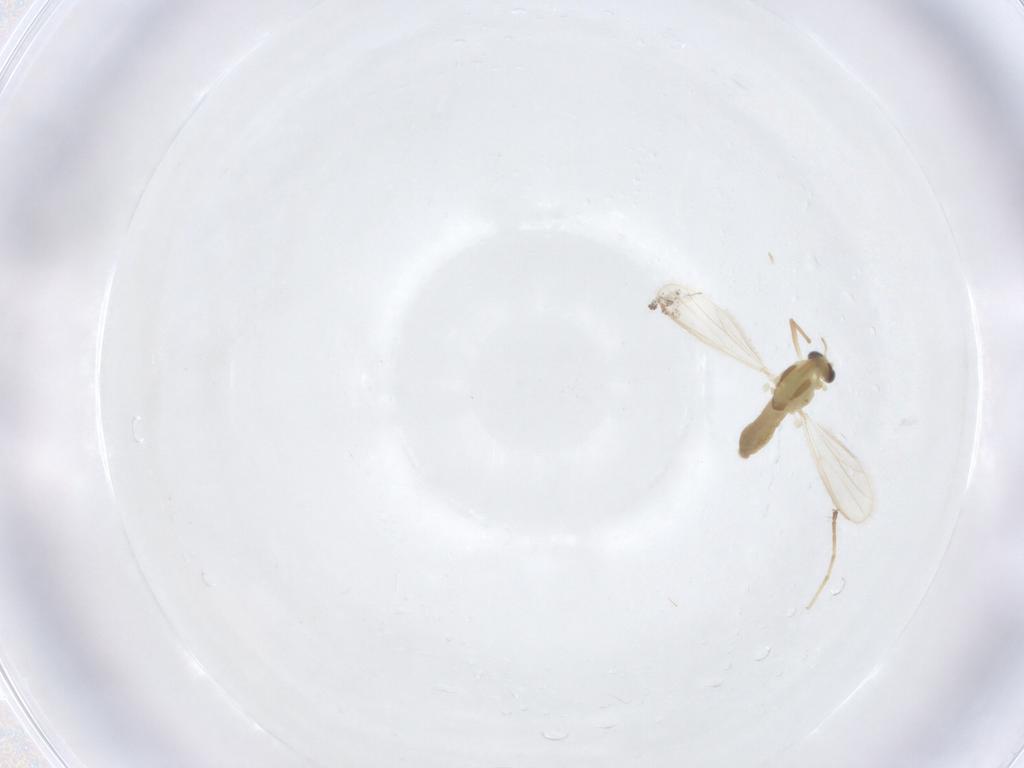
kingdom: Animalia
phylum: Arthropoda
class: Insecta
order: Diptera
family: Chironomidae
